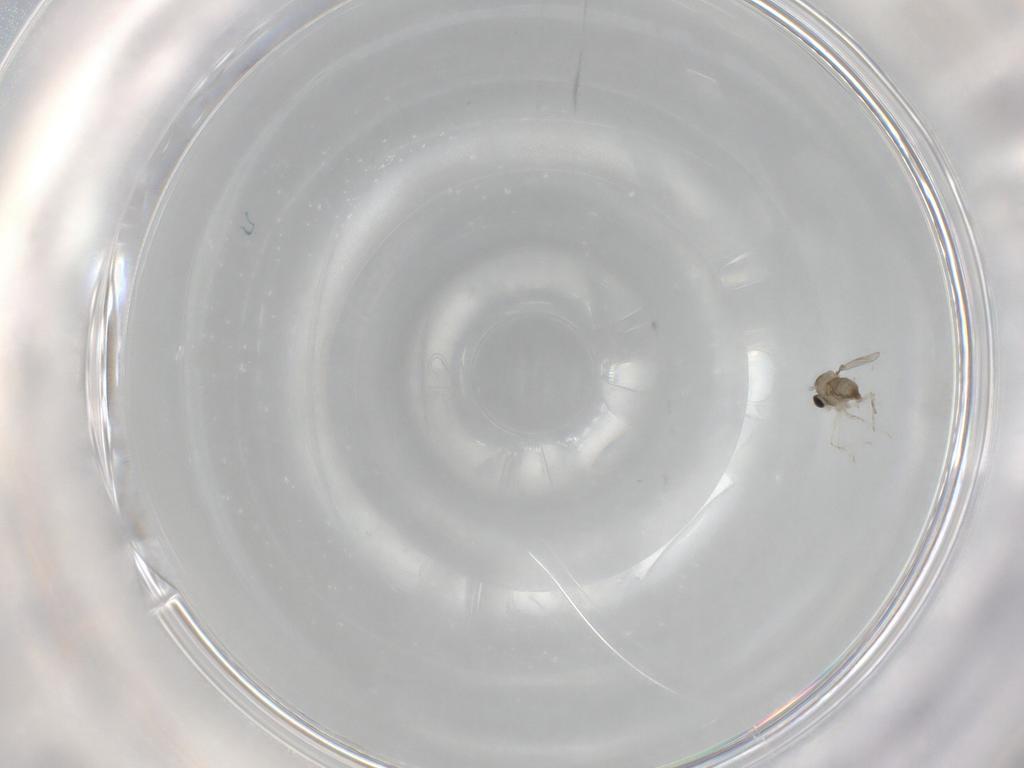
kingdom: Animalia
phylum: Arthropoda
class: Insecta
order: Diptera
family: Chironomidae
